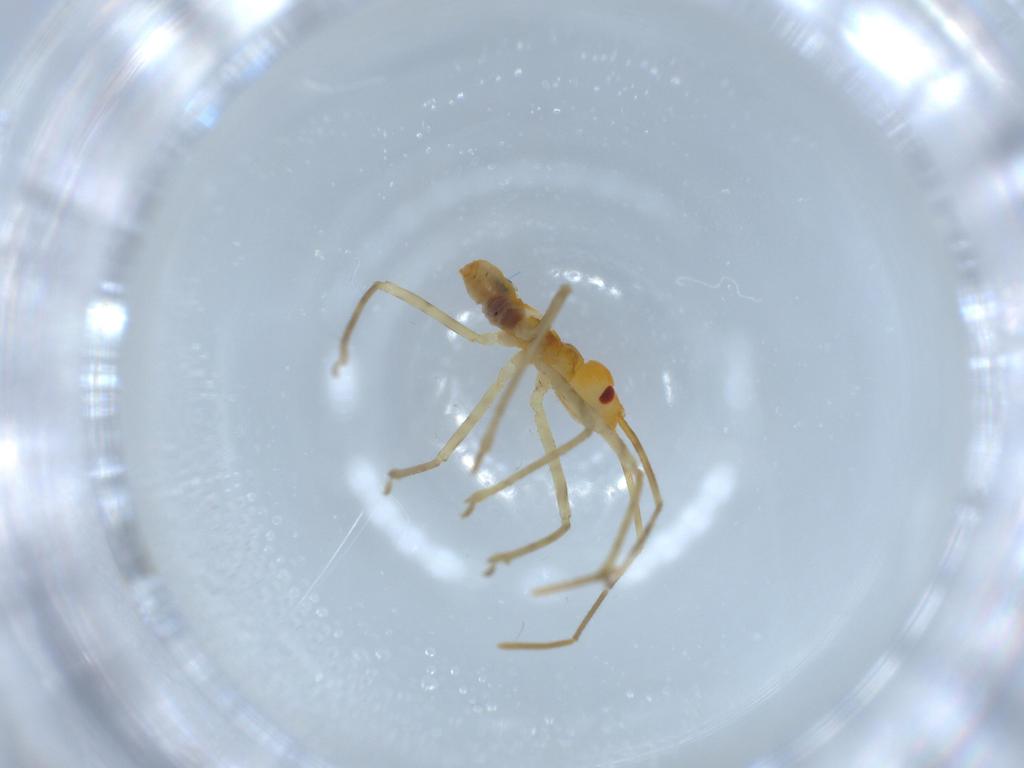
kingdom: Animalia
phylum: Arthropoda
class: Insecta
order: Hemiptera
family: Reduviidae
